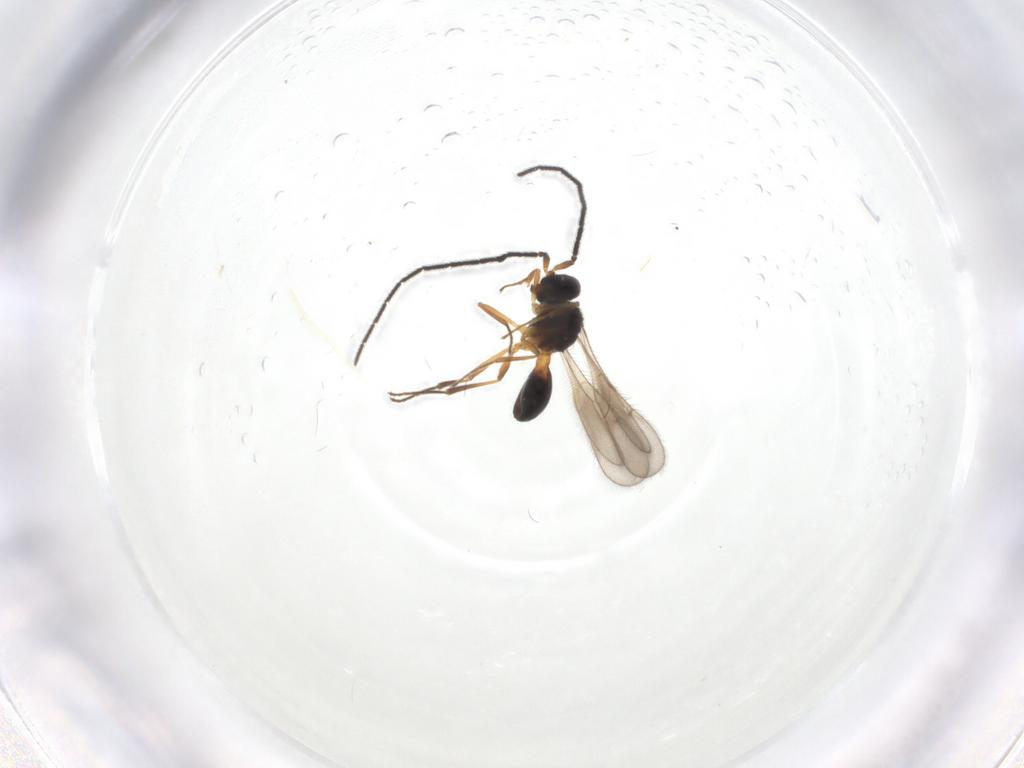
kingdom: Animalia
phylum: Arthropoda
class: Insecta
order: Hymenoptera
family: Scelionidae
